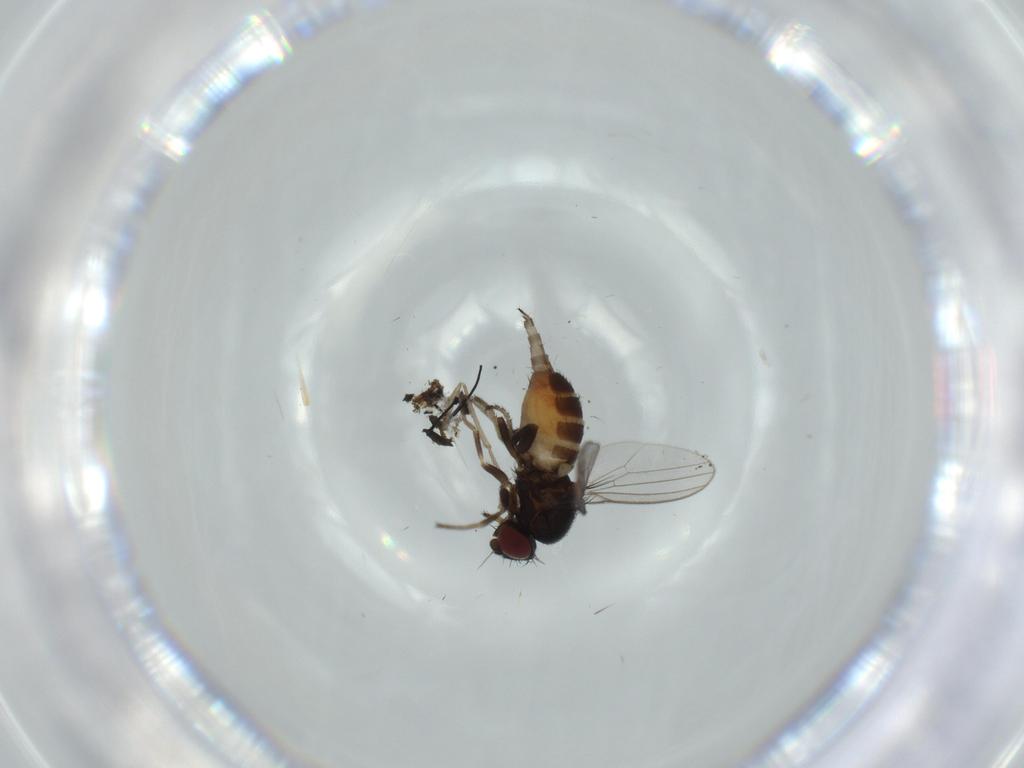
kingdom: Animalia
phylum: Arthropoda
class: Insecta
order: Diptera
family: Milichiidae
